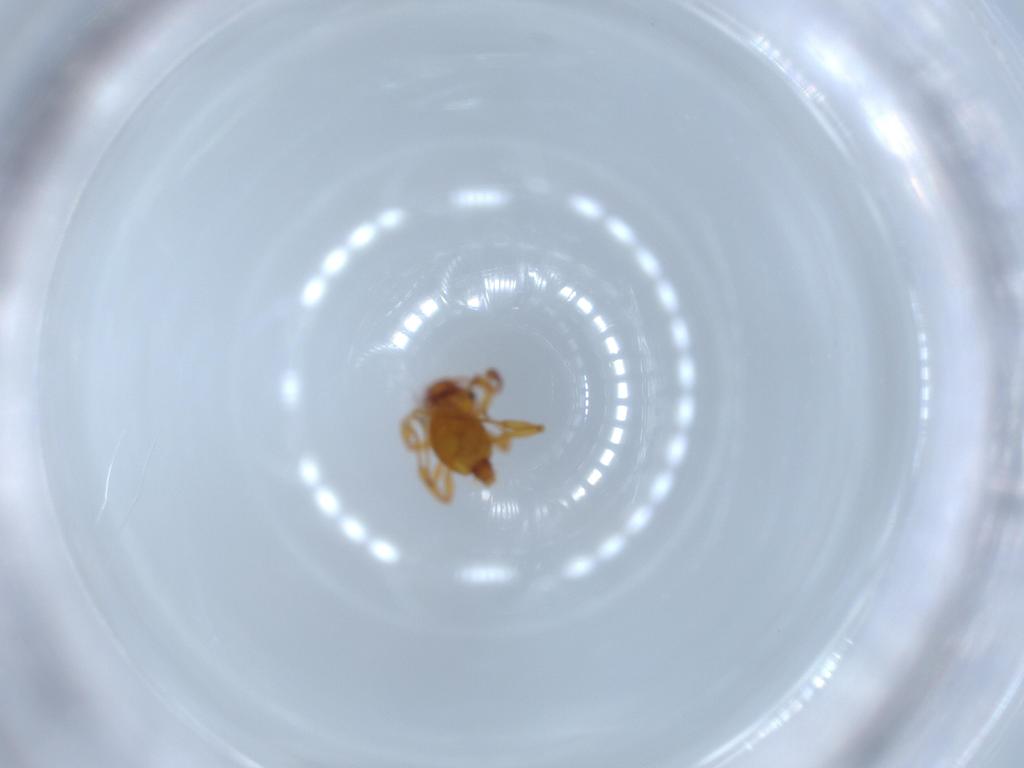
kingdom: Animalia
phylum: Arthropoda
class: Insecta
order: Hymenoptera
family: Formicidae
